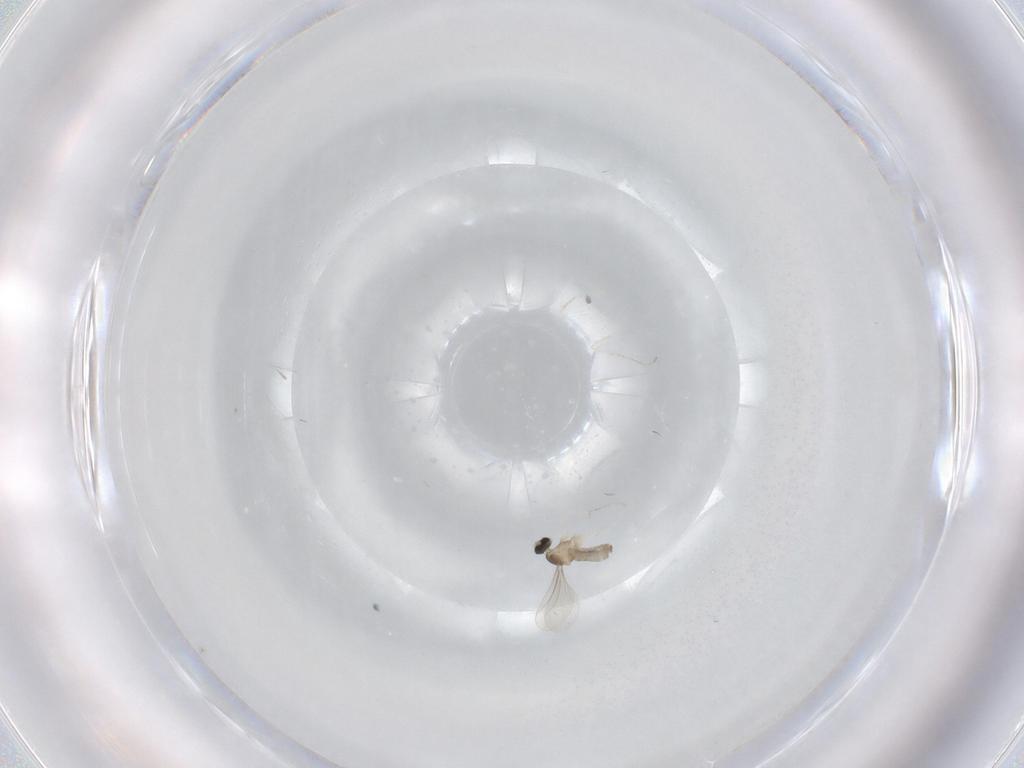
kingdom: Animalia
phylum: Arthropoda
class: Insecta
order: Diptera
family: Cecidomyiidae
